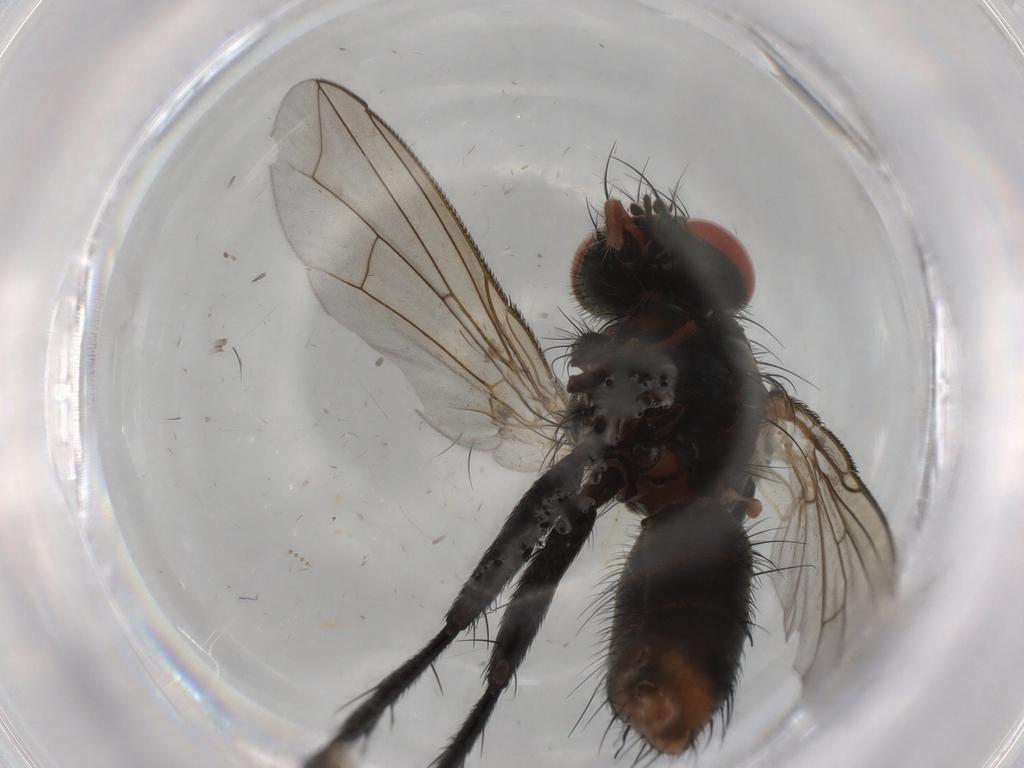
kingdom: Animalia
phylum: Arthropoda
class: Insecta
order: Diptera
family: Sarcophagidae
